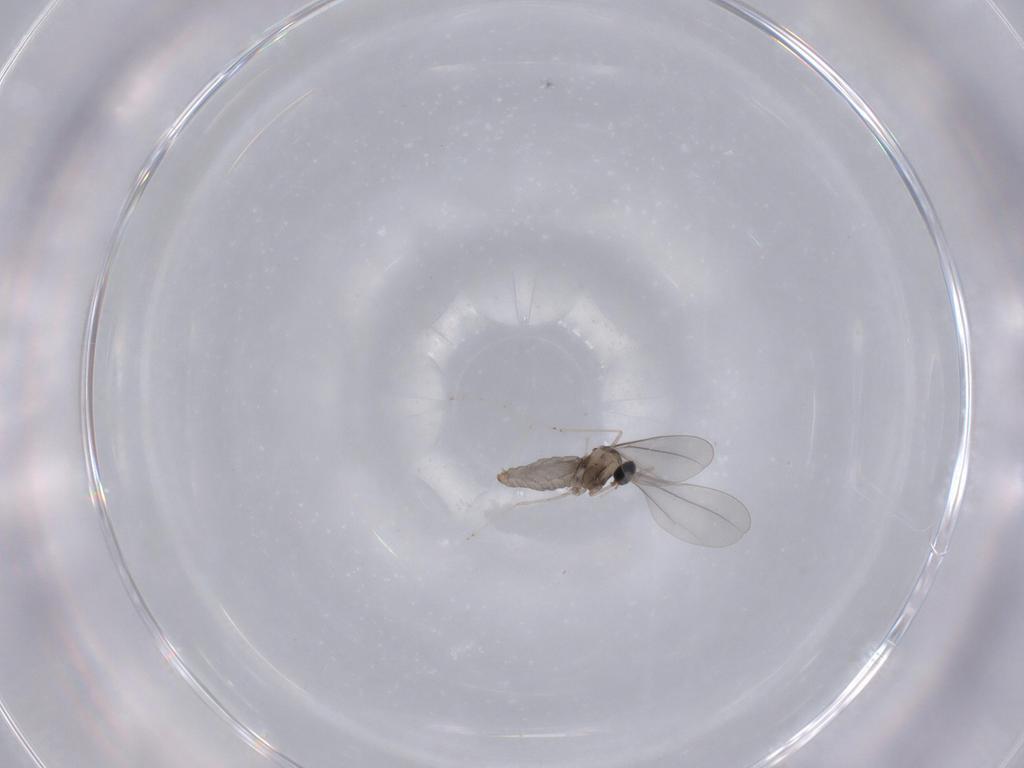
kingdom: Animalia
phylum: Arthropoda
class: Insecta
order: Diptera
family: Cecidomyiidae
